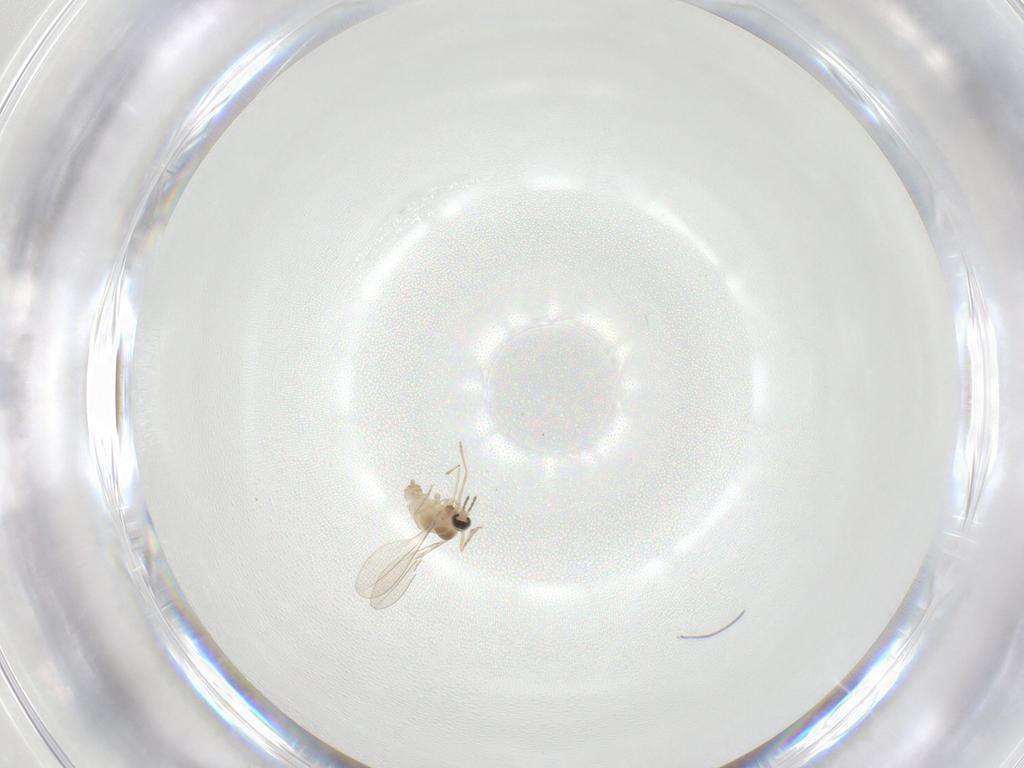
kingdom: Animalia
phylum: Arthropoda
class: Insecta
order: Diptera
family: Cecidomyiidae
